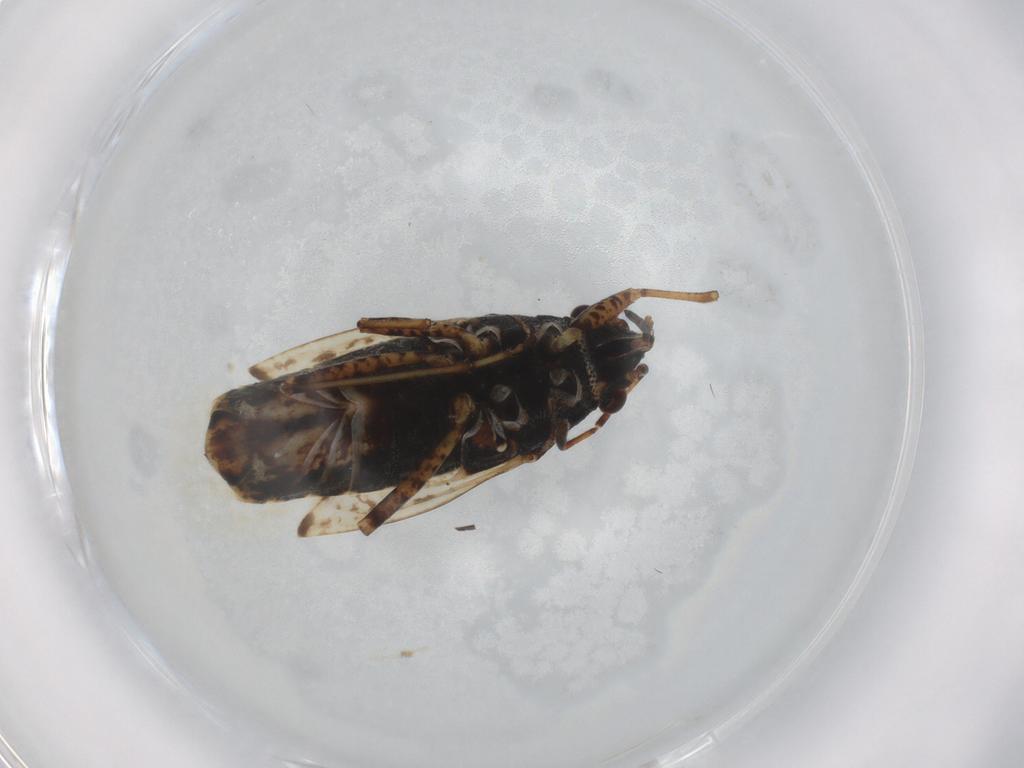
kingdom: Animalia
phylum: Arthropoda
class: Insecta
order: Hemiptera
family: Lygaeidae
